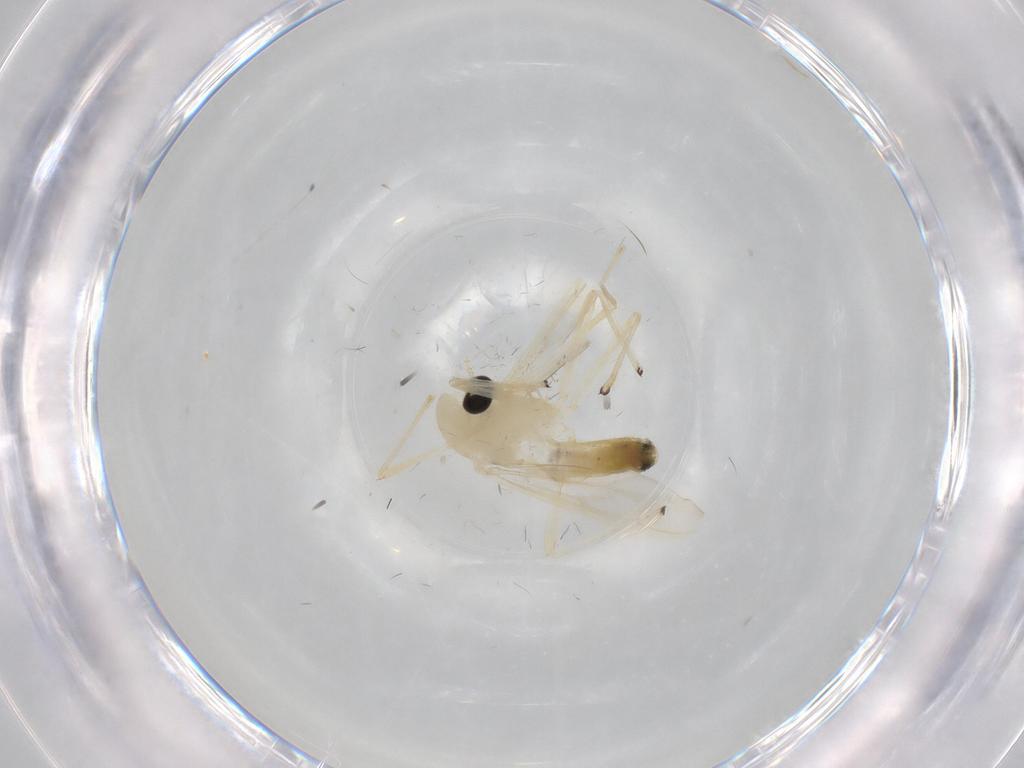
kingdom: Animalia
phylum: Arthropoda
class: Insecta
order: Diptera
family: Chironomidae
